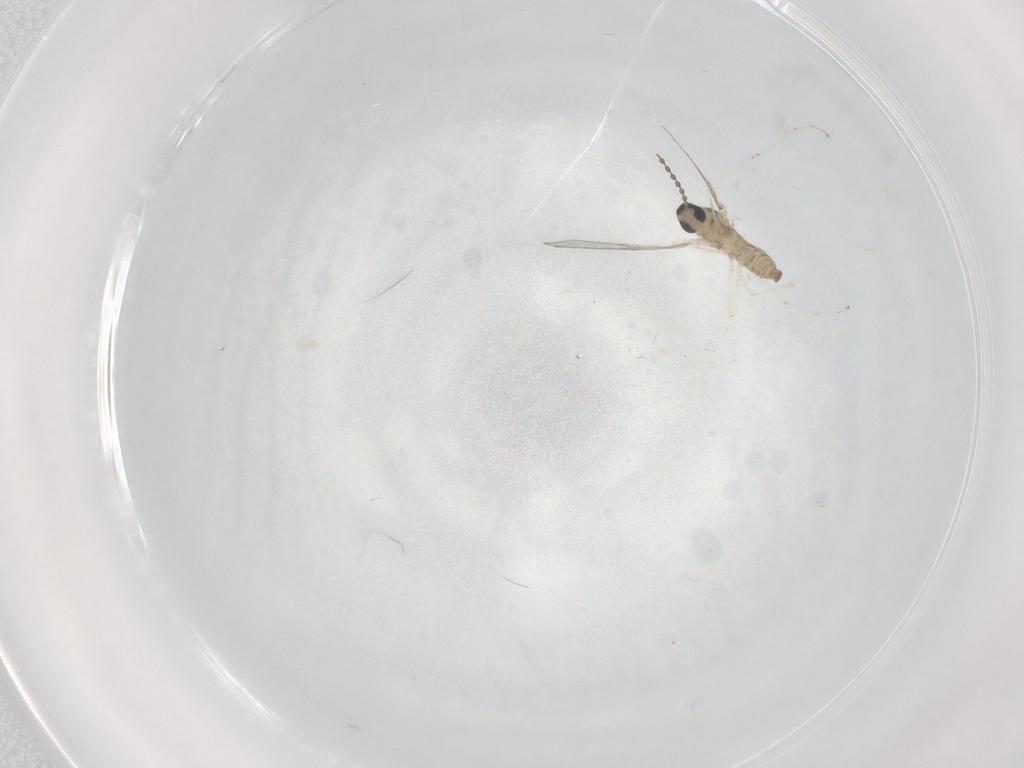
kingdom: Animalia
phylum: Arthropoda
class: Insecta
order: Diptera
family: Cecidomyiidae
